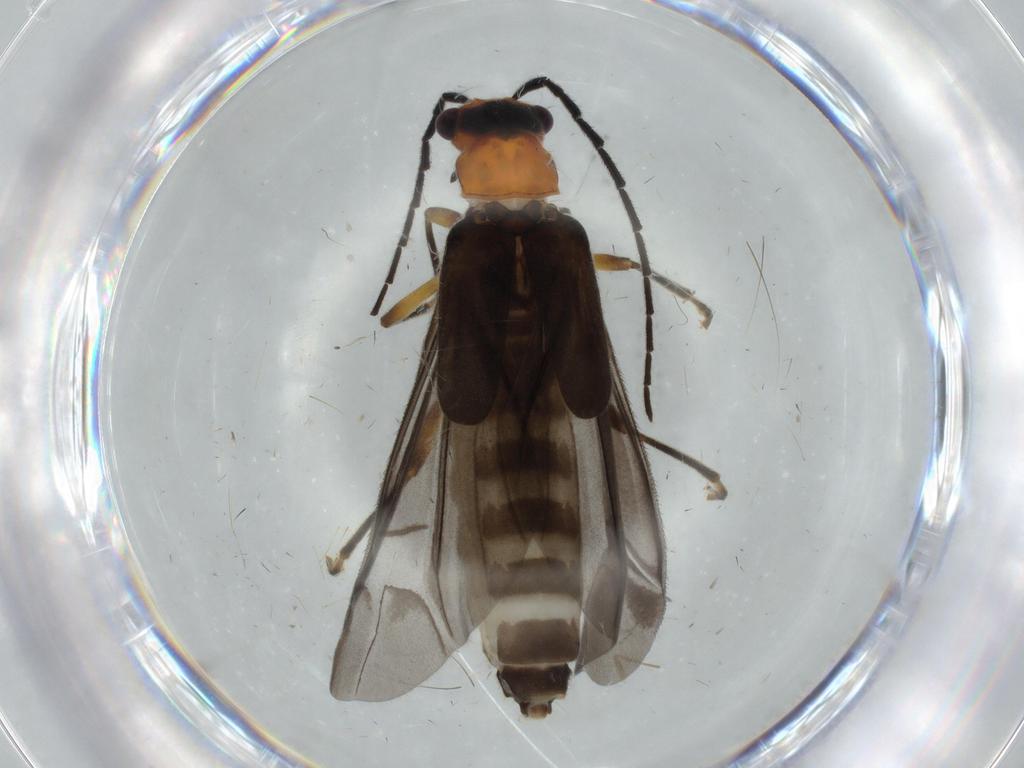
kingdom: Animalia
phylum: Arthropoda
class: Insecta
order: Coleoptera
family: Cantharidae
